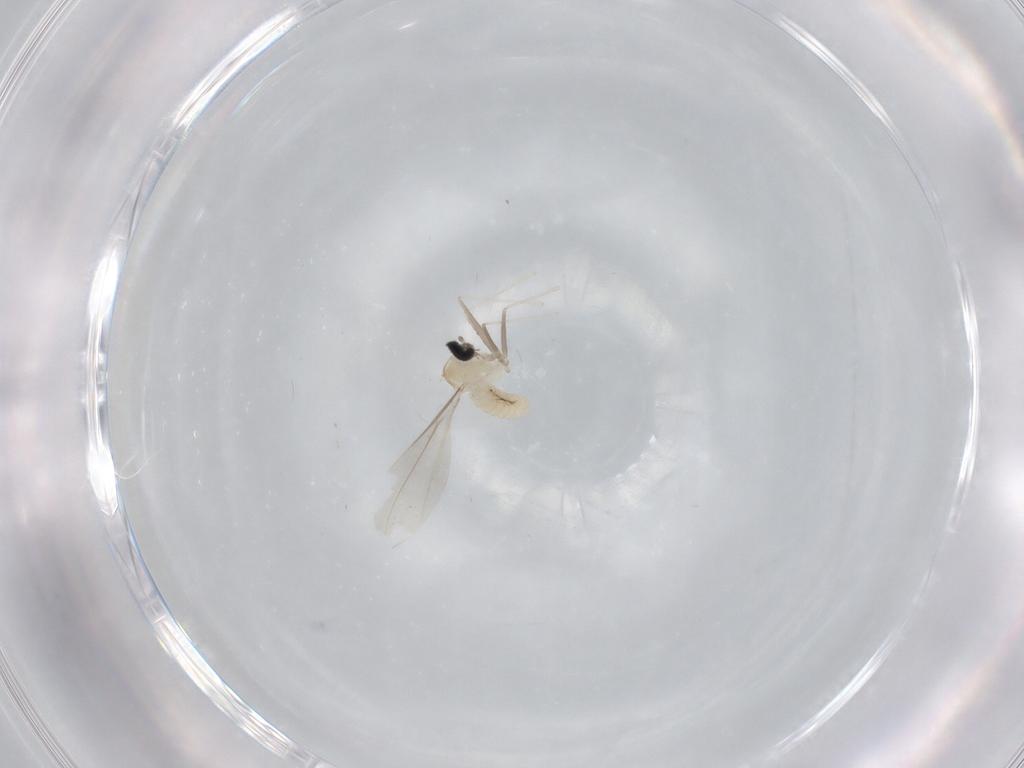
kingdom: Animalia
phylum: Arthropoda
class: Insecta
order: Diptera
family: Cecidomyiidae
